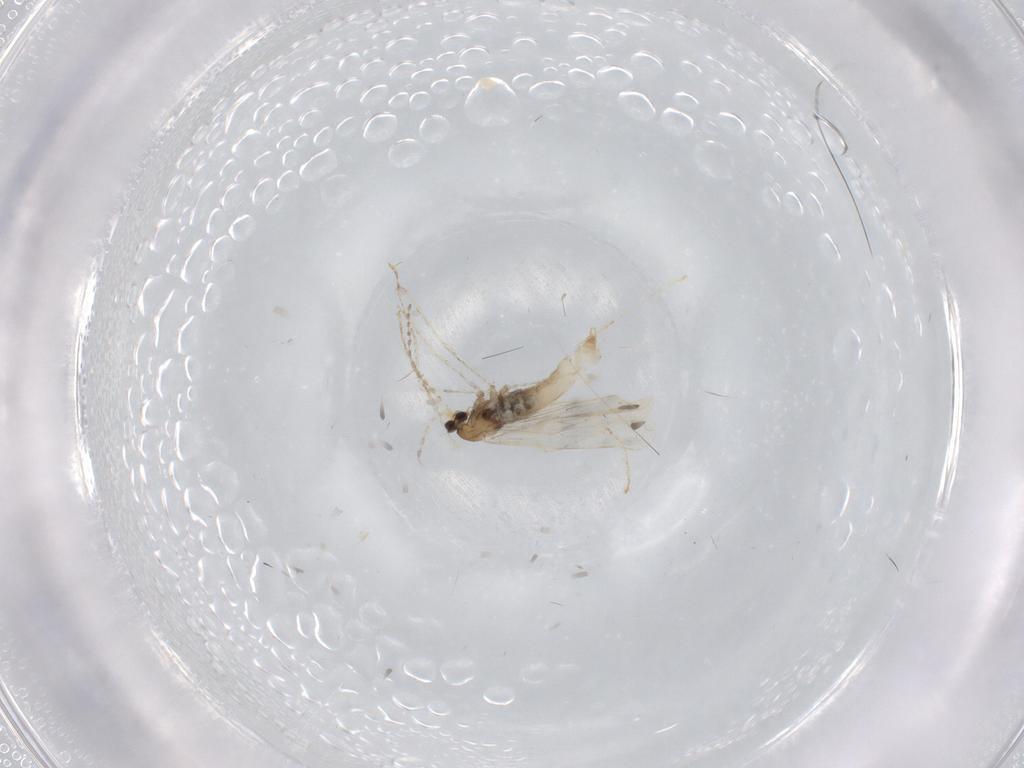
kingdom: Animalia
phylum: Arthropoda
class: Insecta
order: Diptera
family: Cecidomyiidae
